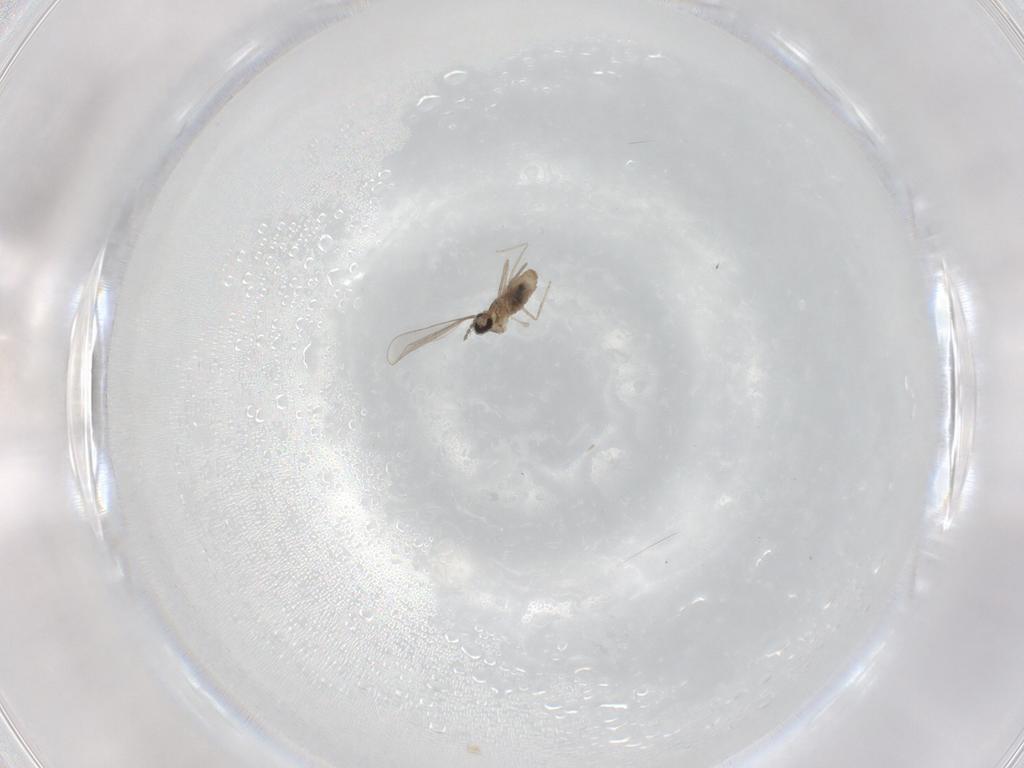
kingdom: Animalia
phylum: Arthropoda
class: Insecta
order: Diptera
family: Cecidomyiidae
